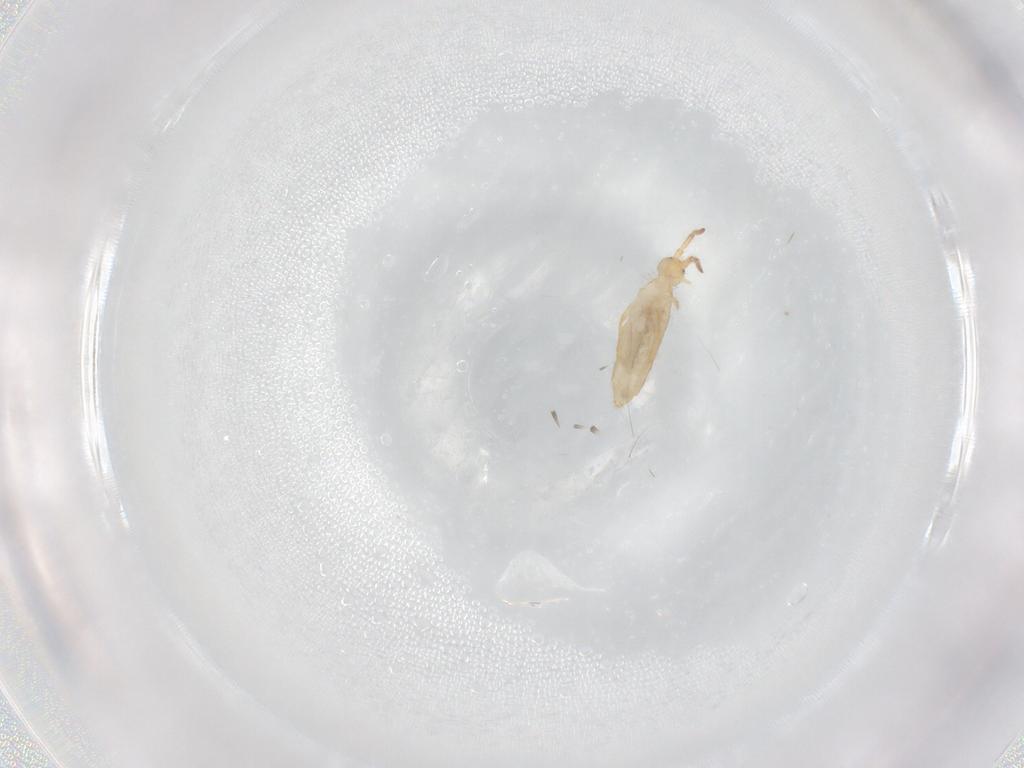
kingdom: Animalia
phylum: Arthropoda
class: Collembola
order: Entomobryomorpha
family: Entomobryidae
